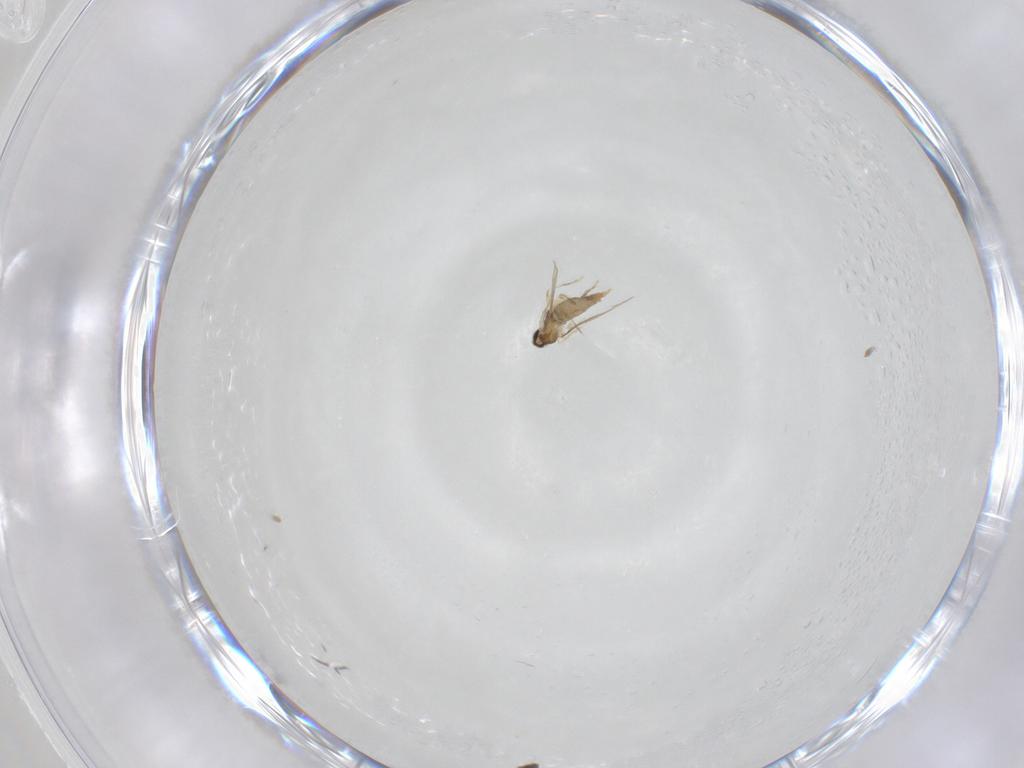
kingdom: Animalia
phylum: Arthropoda
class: Insecta
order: Diptera
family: Cecidomyiidae
